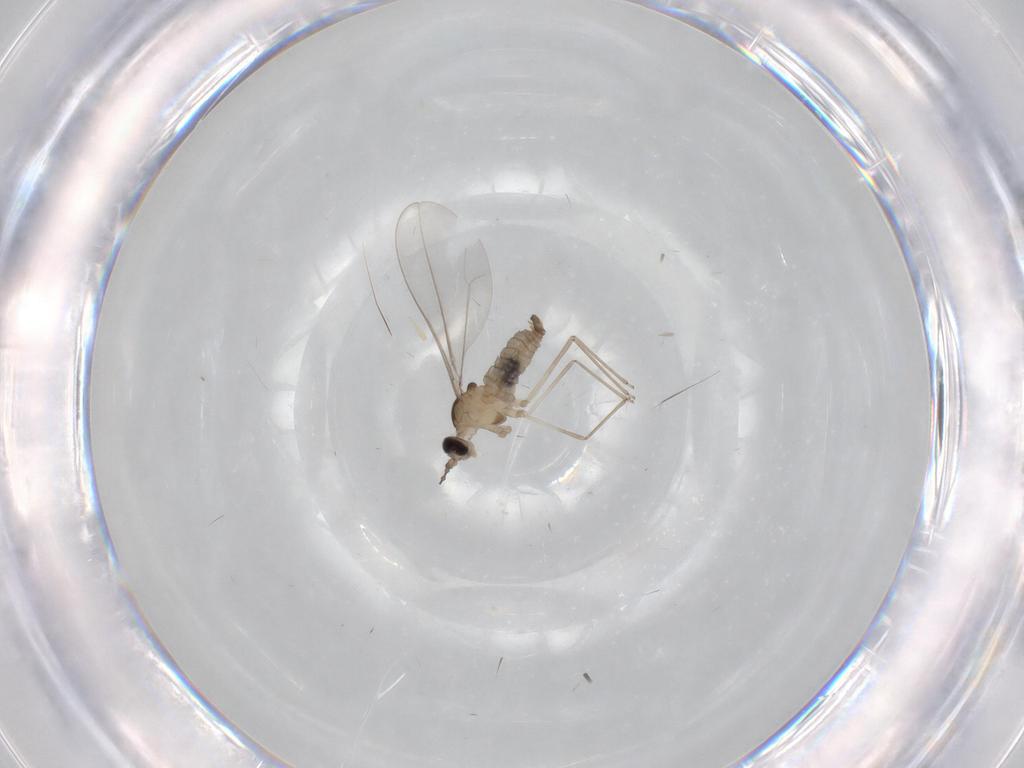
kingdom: Animalia
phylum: Arthropoda
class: Insecta
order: Diptera
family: Cecidomyiidae
